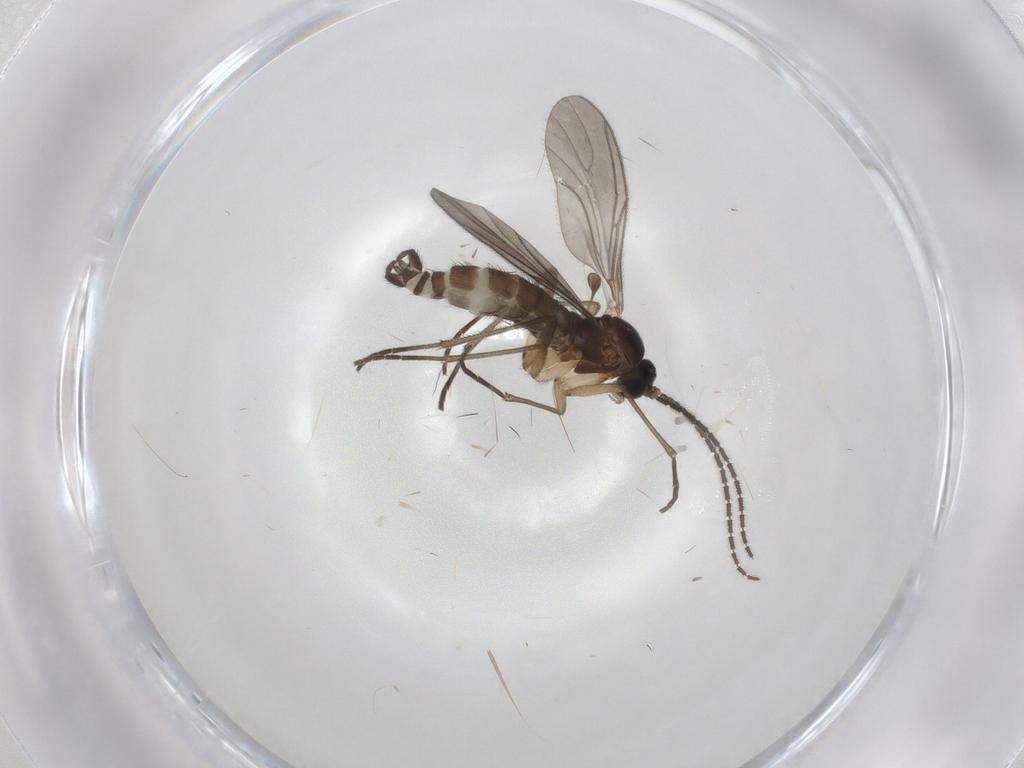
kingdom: Animalia
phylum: Arthropoda
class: Insecta
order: Diptera
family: Sciaridae
